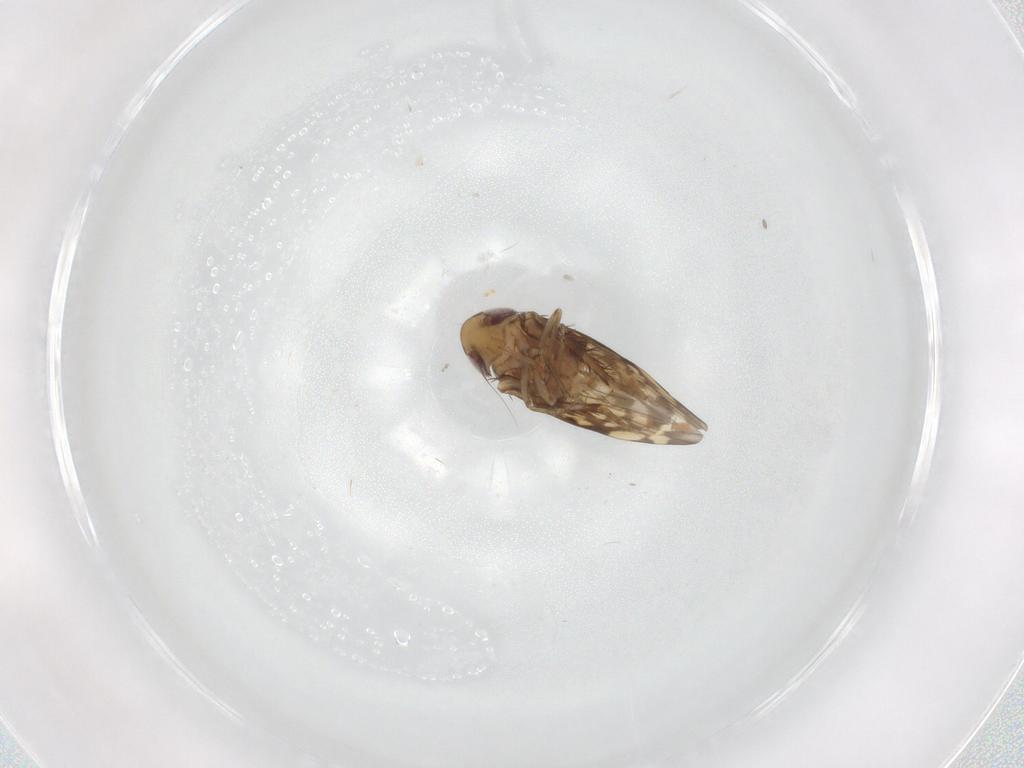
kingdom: Animalia
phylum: Arthropoda
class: Insecta
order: Hemiptera
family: Cicadellidae
